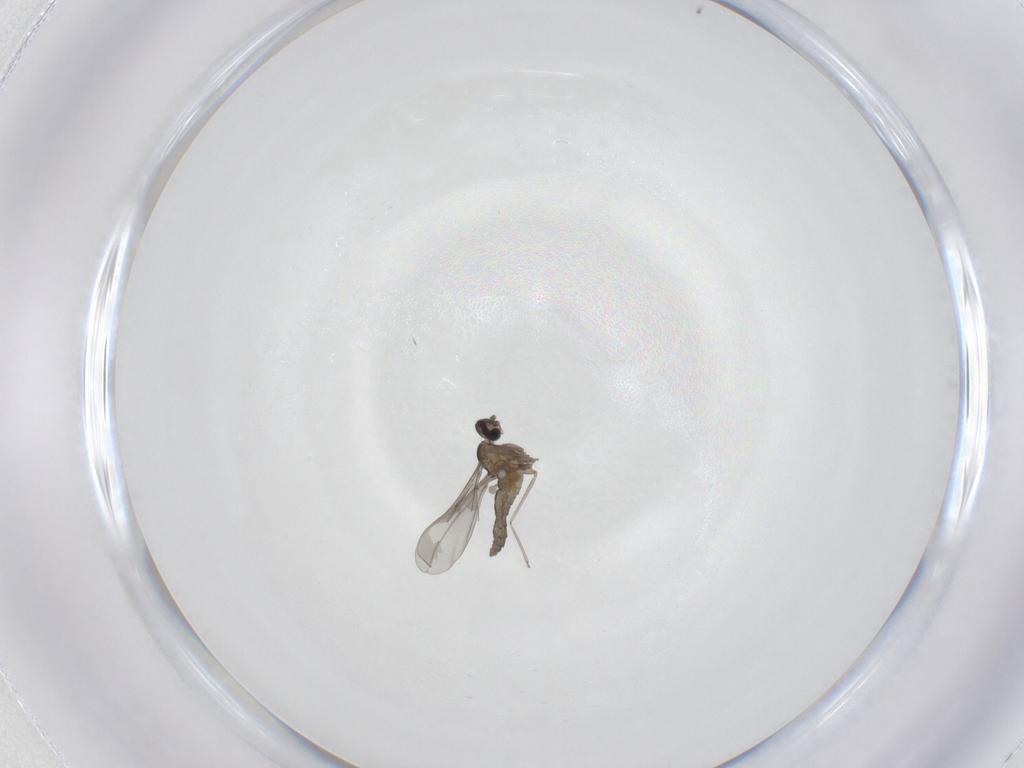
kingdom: Animalia
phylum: Arthropoda
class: Insecta
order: Diptera
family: Cecidomyiidae
